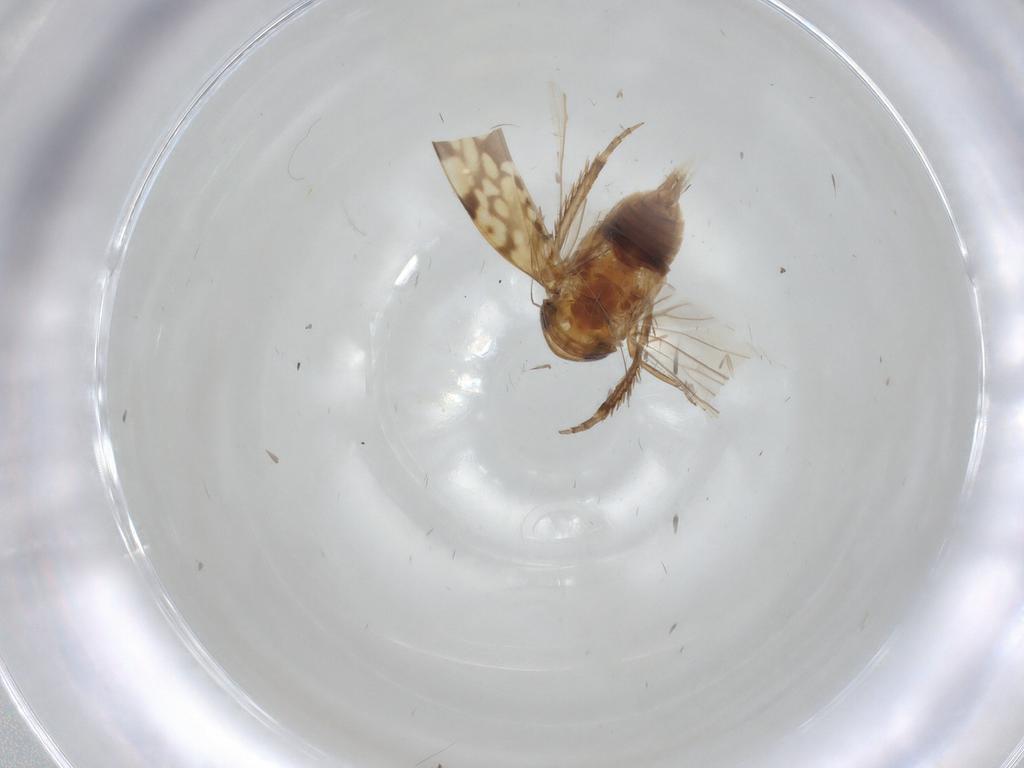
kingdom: Animalia
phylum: Arthropoda
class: Insecta
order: Hemiptera
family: Cicadellidae
